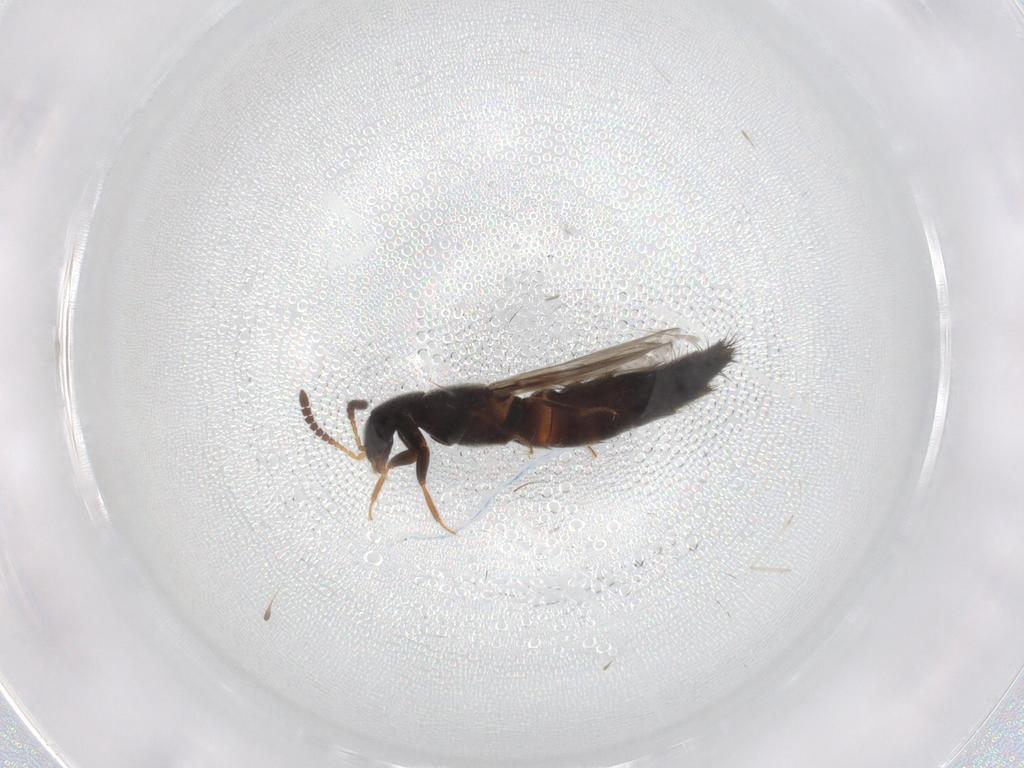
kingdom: Animalia
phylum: Arthropoda
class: Insecta
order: Coleoptera
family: Staphylinidae
